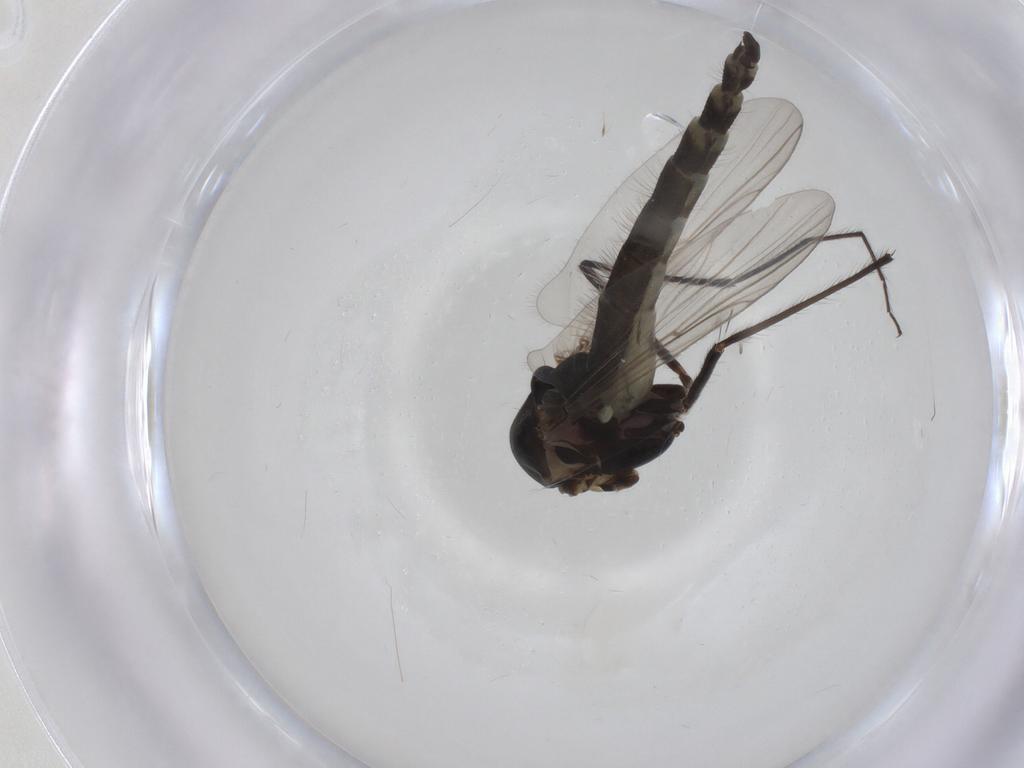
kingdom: Animalia
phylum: Arthropoda
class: Insecta
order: Diptera
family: Chironomidae
